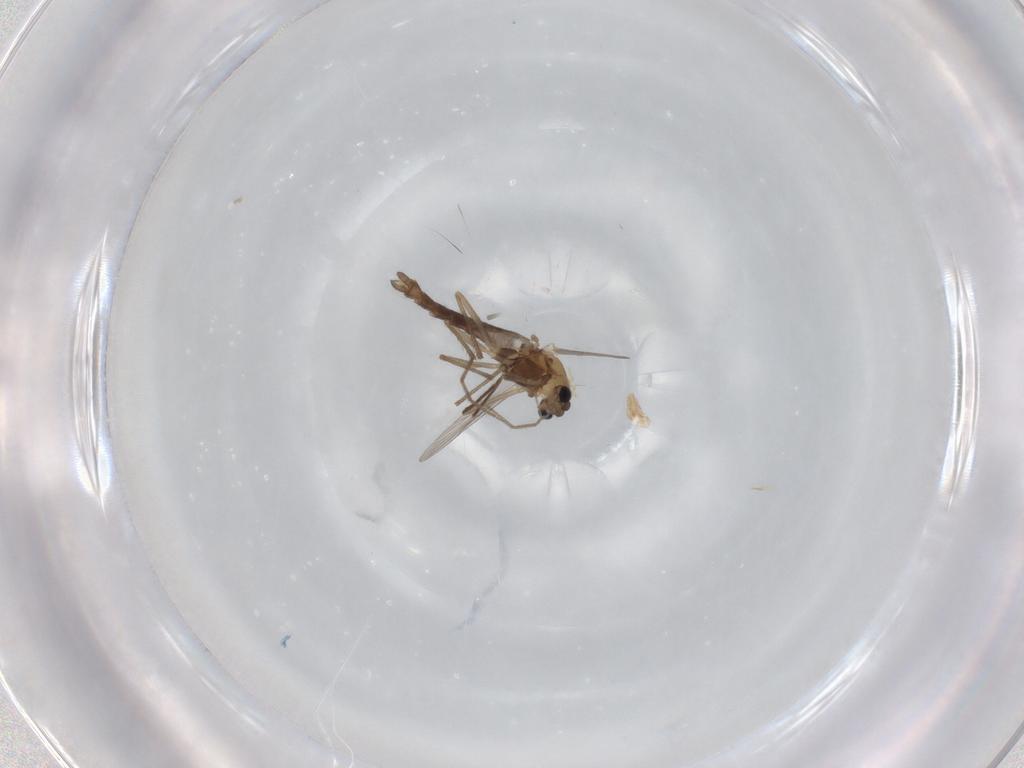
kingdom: Animalia
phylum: Arthropoda
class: Insecta
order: Diptera
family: Chironomidae
